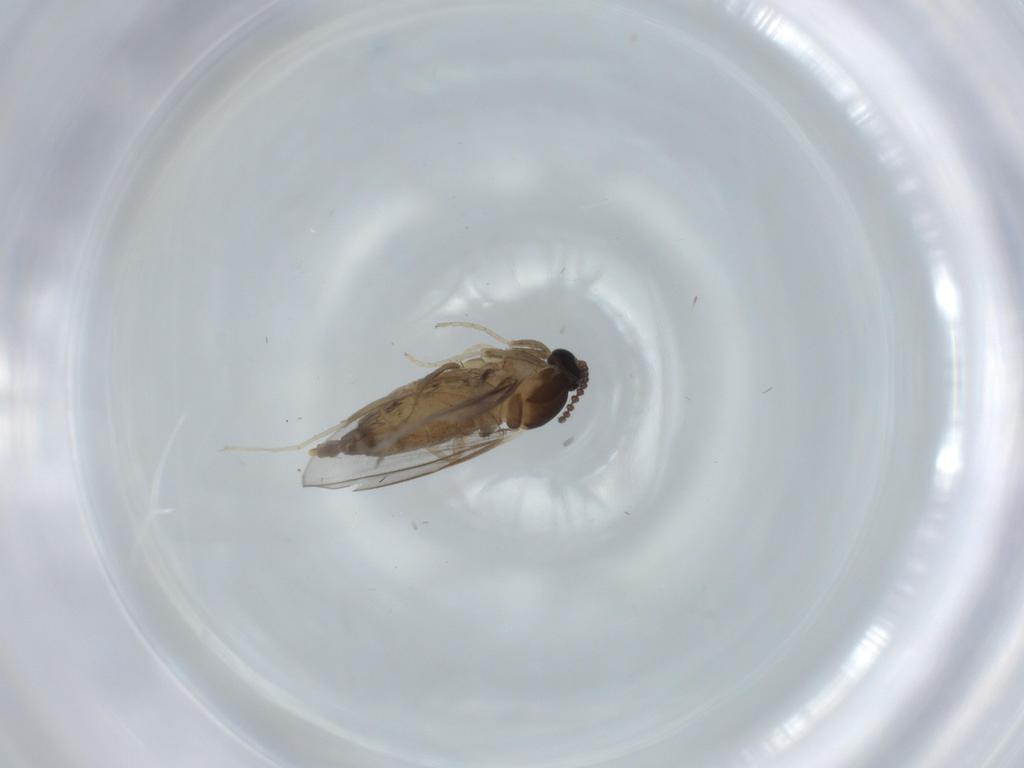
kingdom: Animalia
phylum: Arthropoda
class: Insecta
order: Diptera
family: Cecidomyiidae
